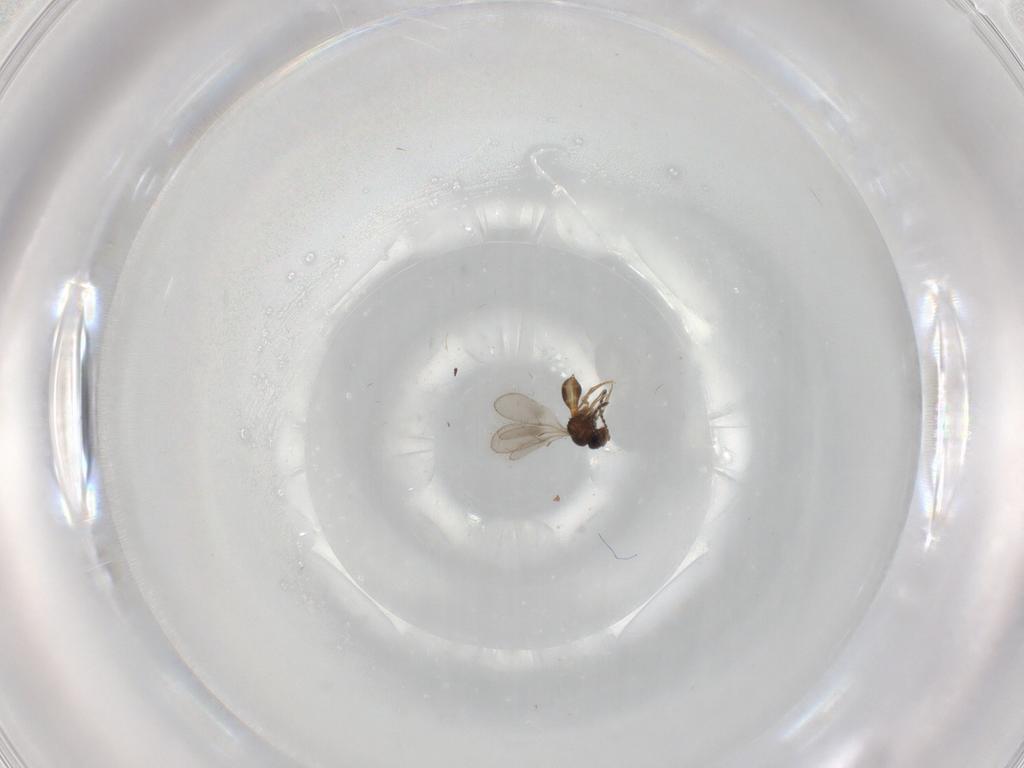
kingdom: Animalia
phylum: Arthropoda
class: Insecta
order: Hymenoptera
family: Scelionidae
